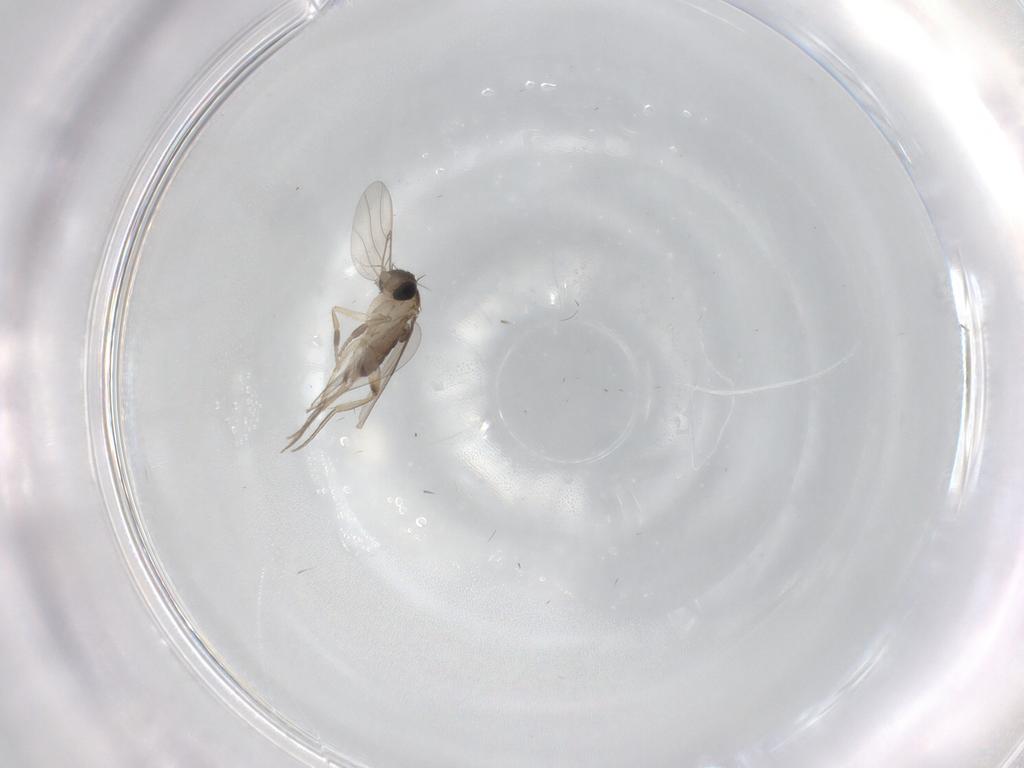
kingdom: Animalia
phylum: Arthropoda
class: Insecta
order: Diptera
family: Phoridae
